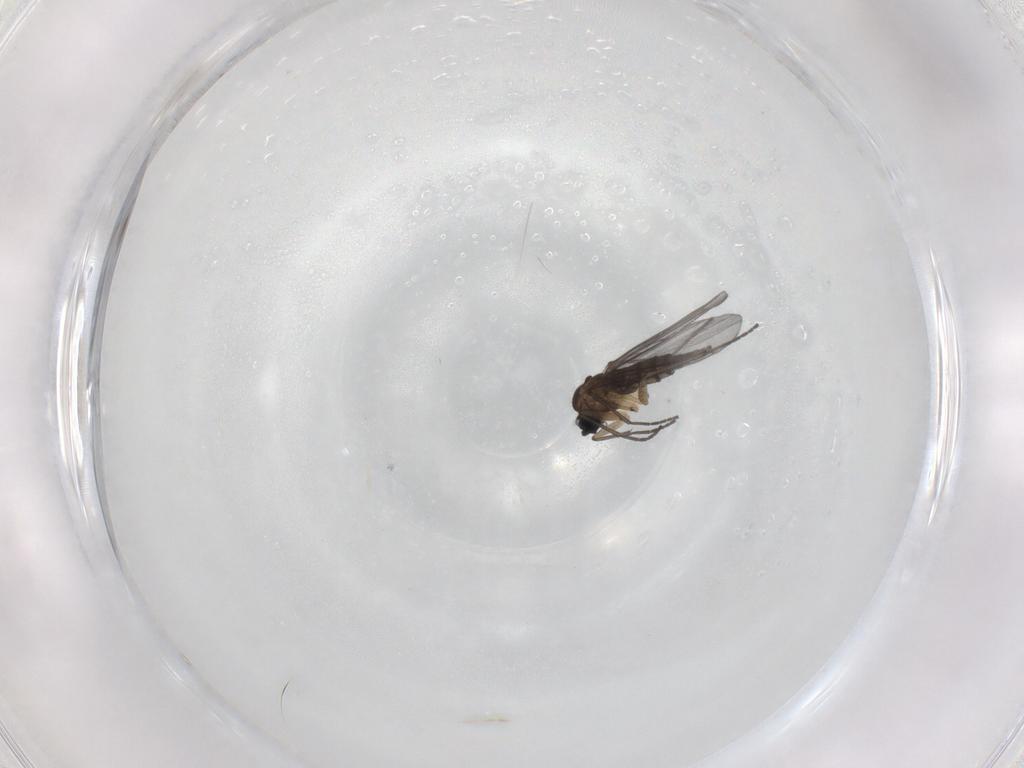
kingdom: Animalia
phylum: Arthropoda
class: Insecta
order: Diptera
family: Sciaridae
